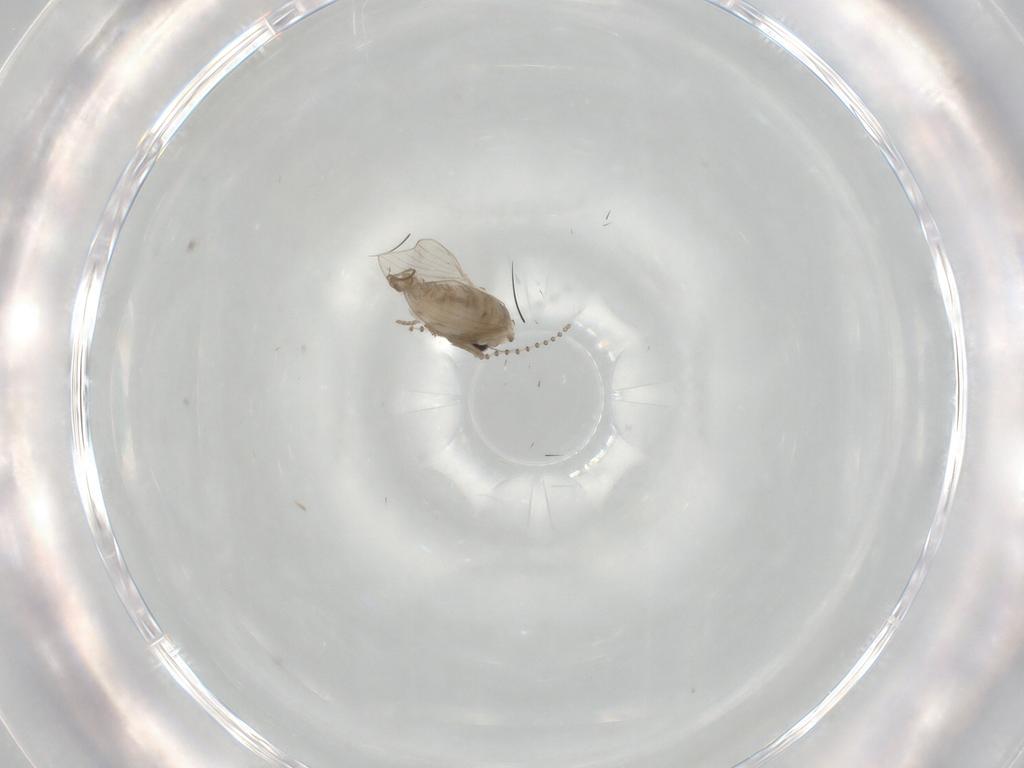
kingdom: Animalia
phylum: Arthropoda
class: Insecta
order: Diptera
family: Psychodidae
